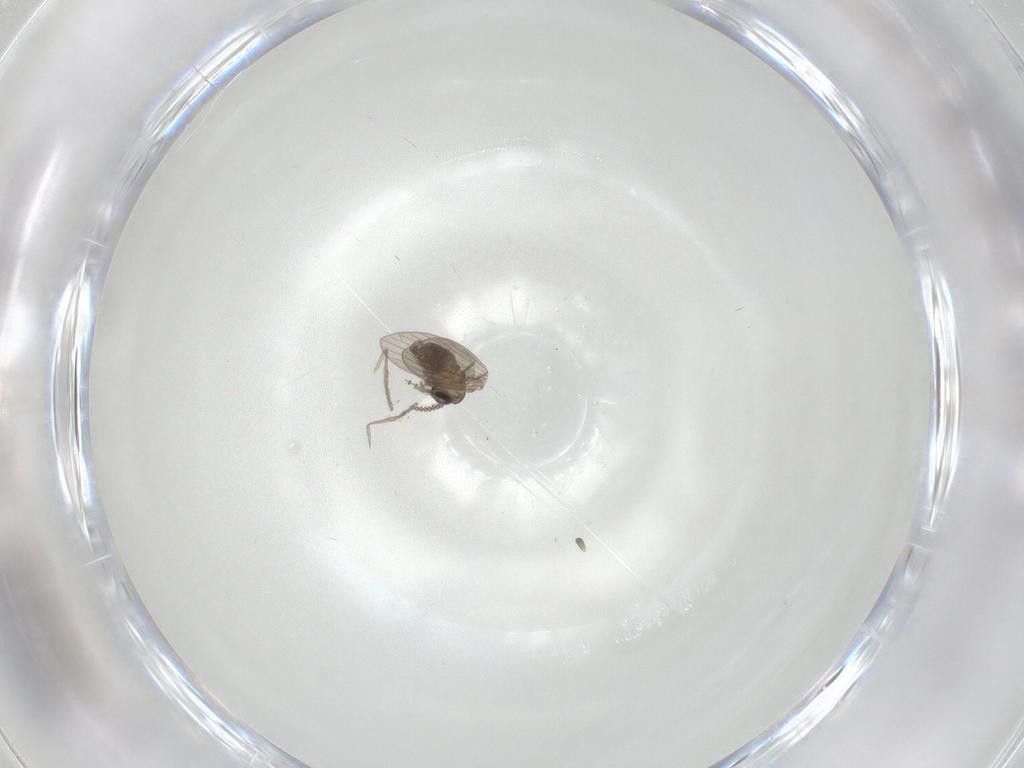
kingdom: Animalia
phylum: Arthropoda
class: Insecta
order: Diptera
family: Psychodidae
